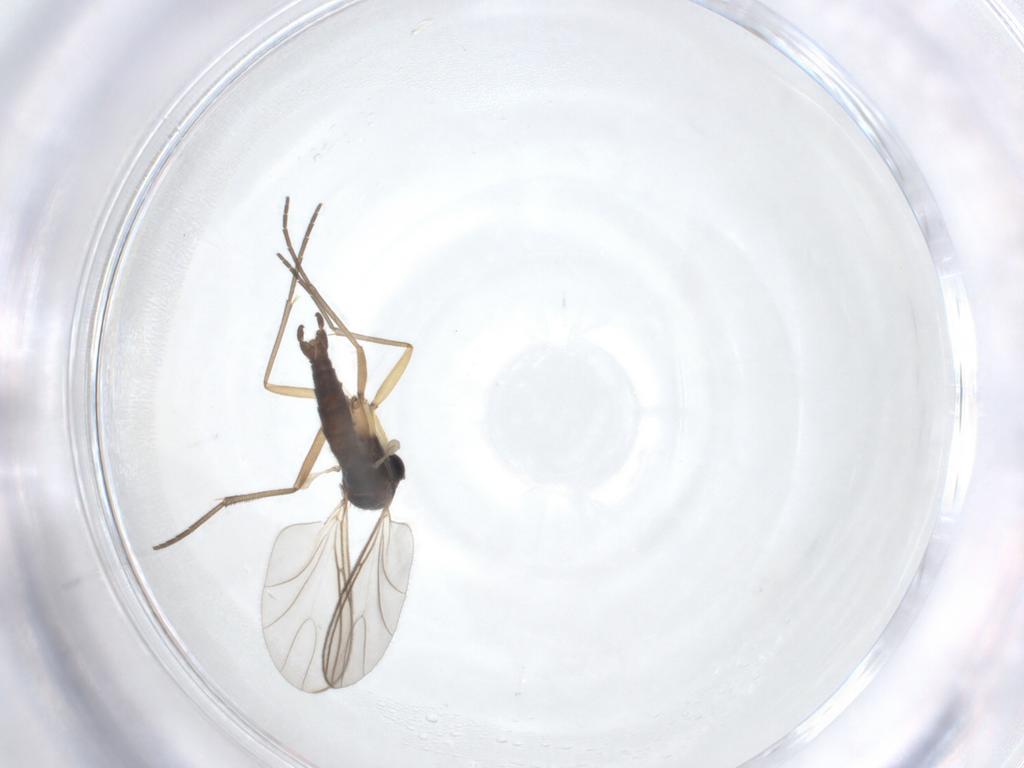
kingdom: Animalia
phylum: Arthropoda
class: Insecta
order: Diptera
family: Sciaridae
